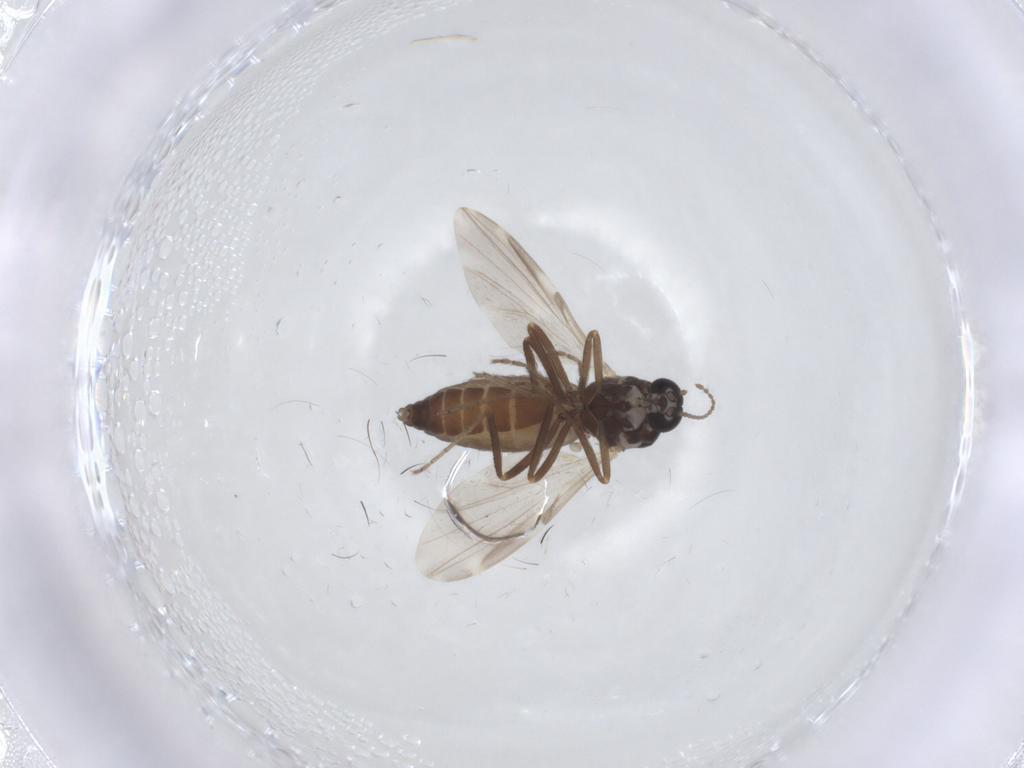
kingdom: Animalia
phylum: Arthropoda
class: Insecta
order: Diptera
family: Ceratopogonidae
